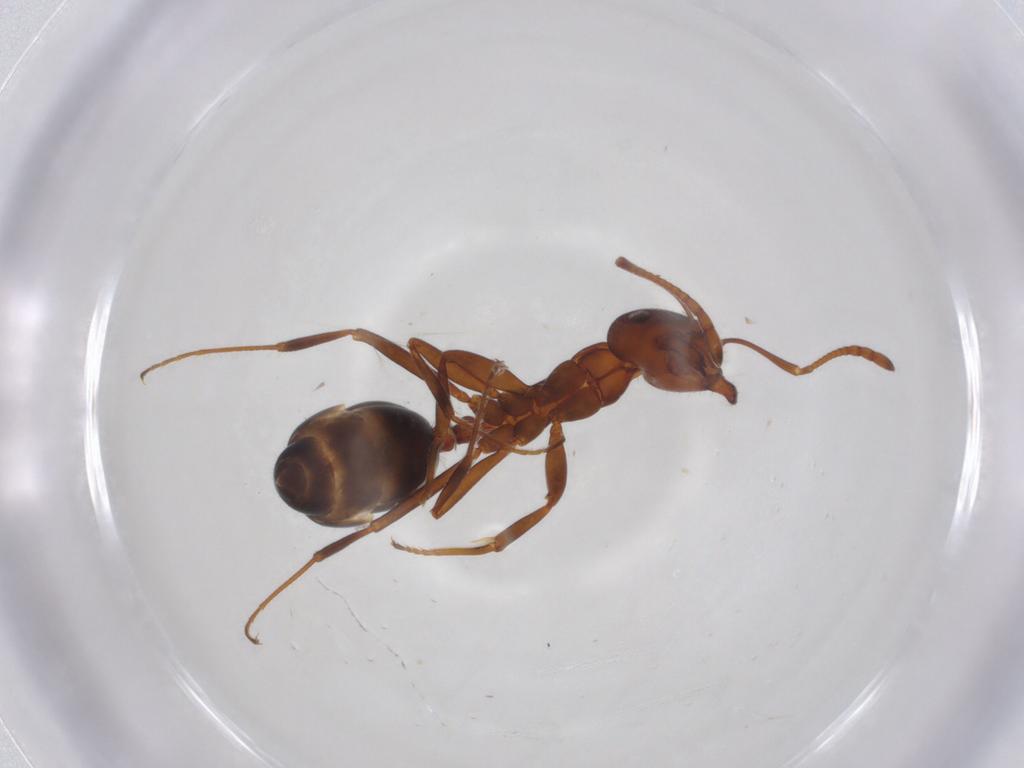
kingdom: Animalia
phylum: Arthropoda
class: Insecta
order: Hymenoptera
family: Formicidae
